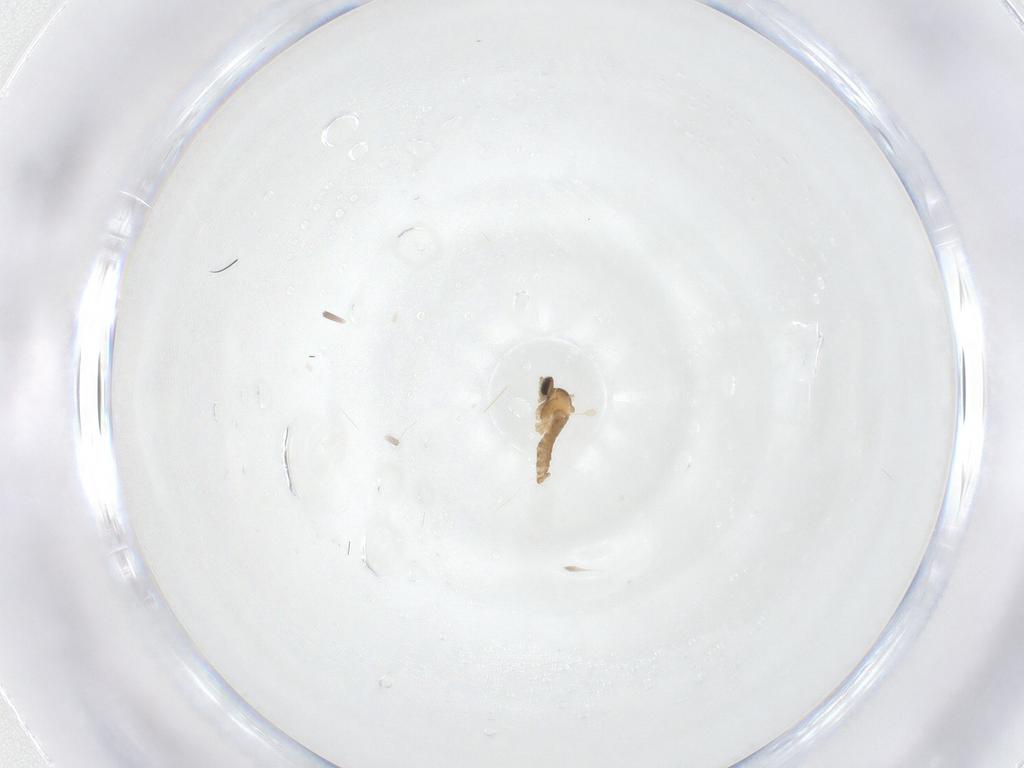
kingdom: Animalia
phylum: Arthropoda
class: Insecta
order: Diptera
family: Cecidomyiidae
